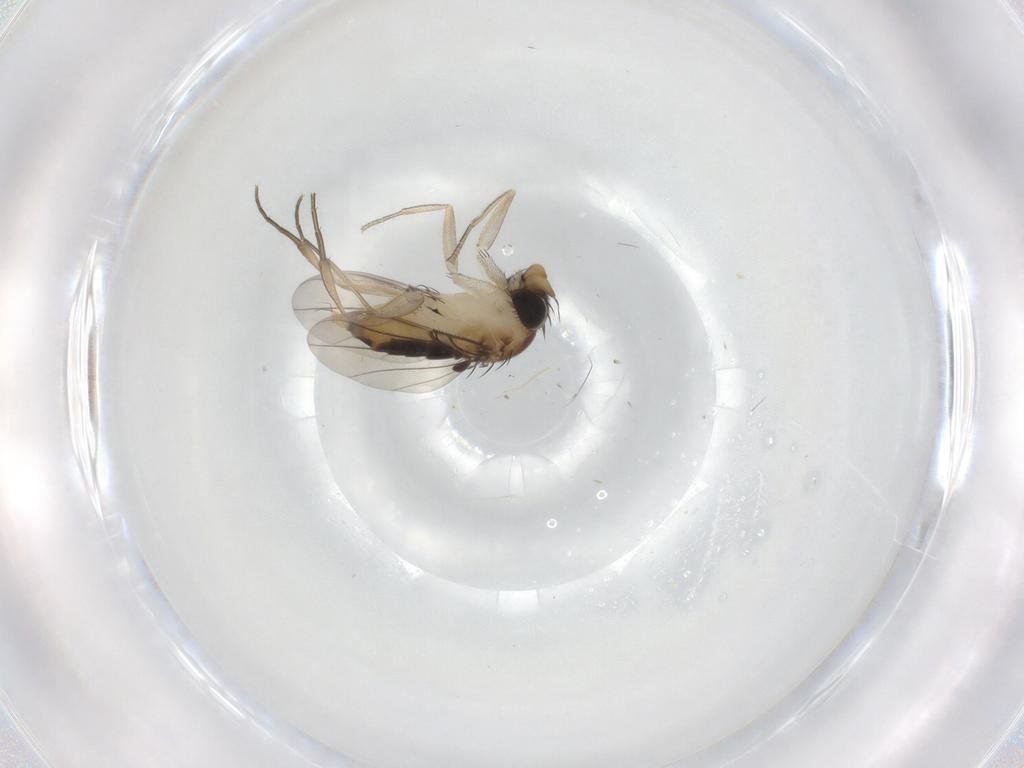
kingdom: Animalia
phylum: Arthropoda
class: Insecta
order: Diptera
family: Phoridae
